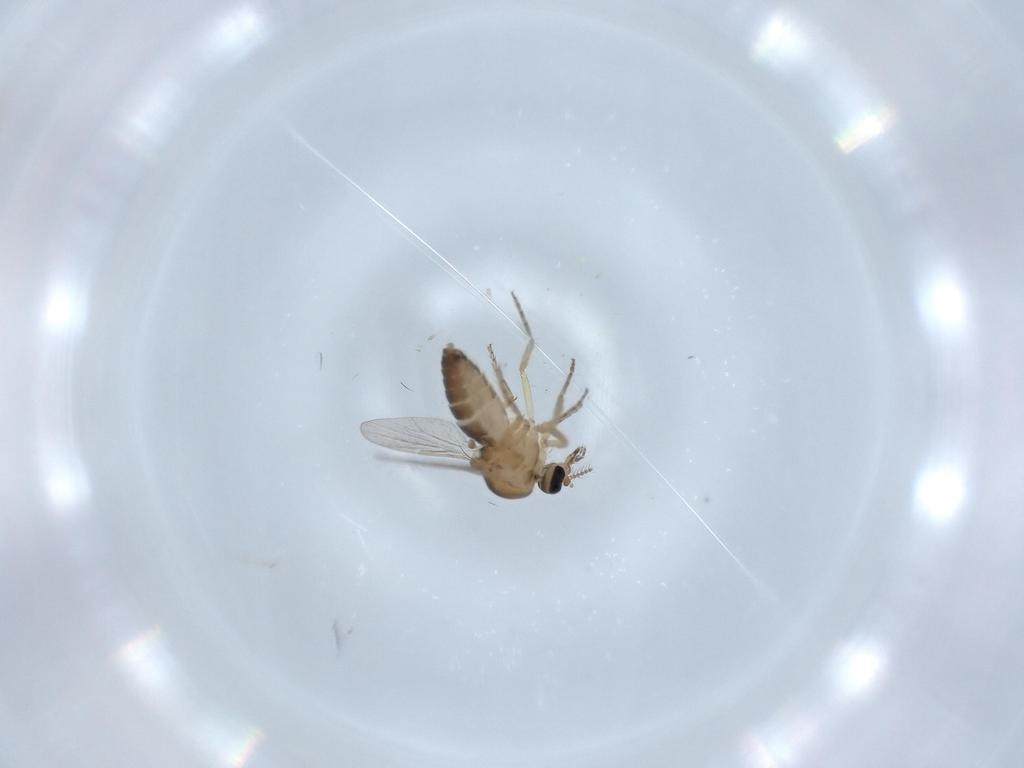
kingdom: Animalia
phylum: Arthropoda
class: Insecta
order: Diptera
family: Ceratopogonidae
